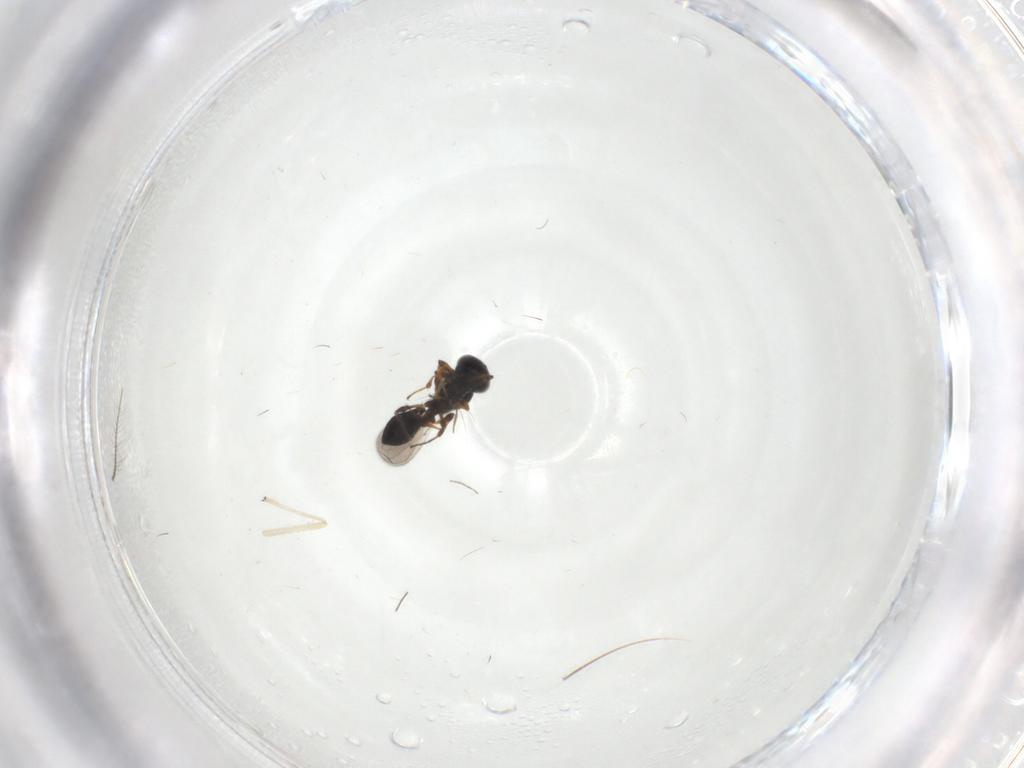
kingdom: Animalia
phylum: Arthropoda
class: Insecta
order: Hymenoptera
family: Platygastridae
